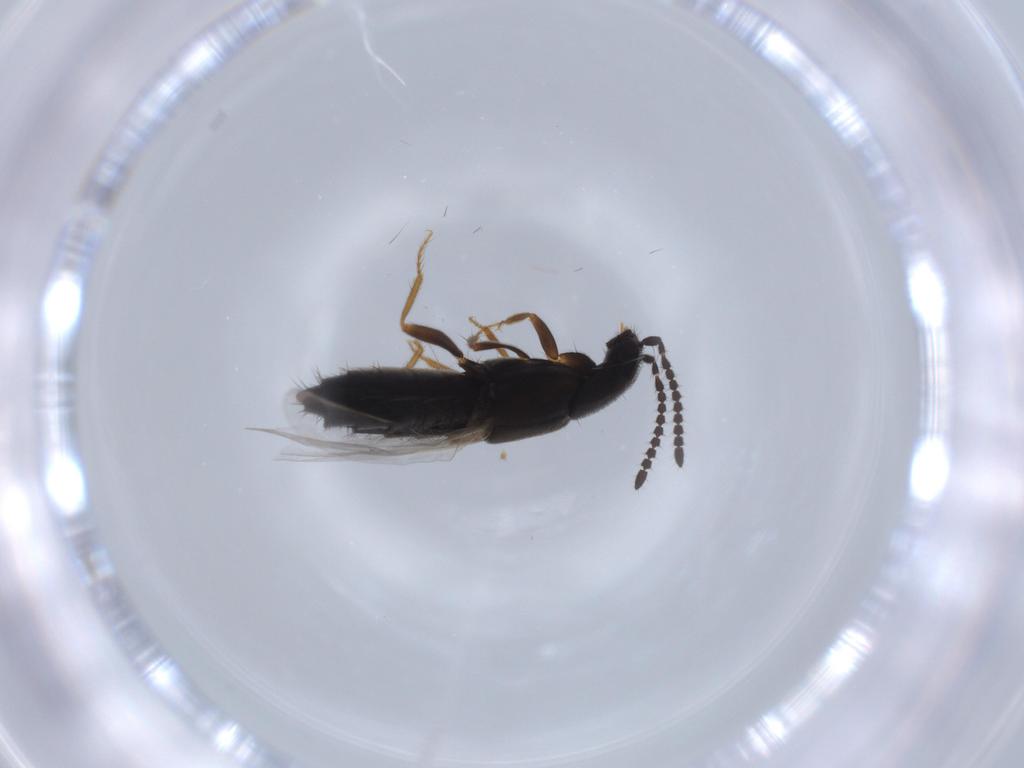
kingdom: Animalia
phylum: Arthropoda
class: Insecta
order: Coleoptera
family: Staphylinidae
